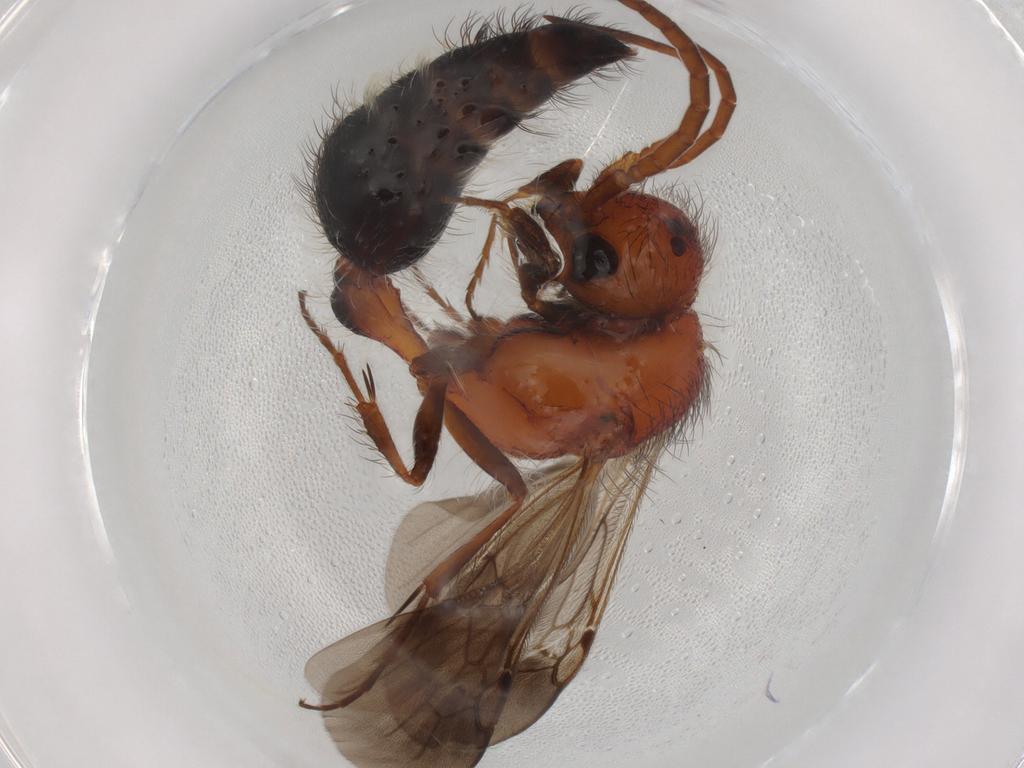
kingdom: Animalia
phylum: Arthropoda
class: Insecta
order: Hymenoptera
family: Mutillidae
